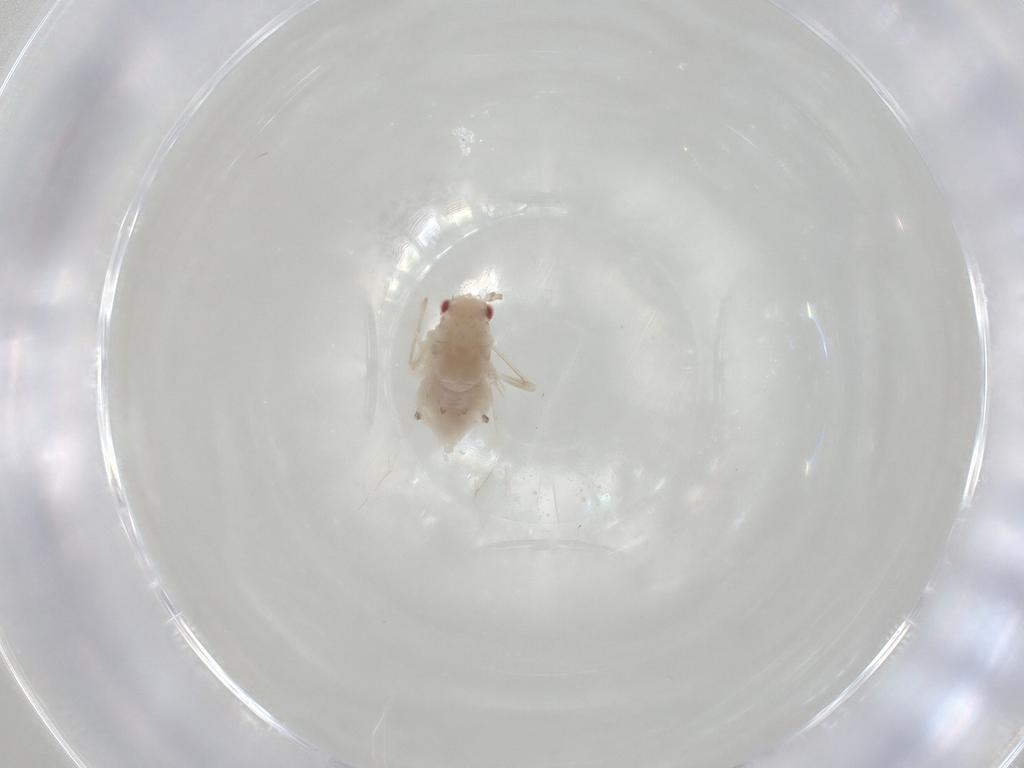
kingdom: Animalia
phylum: Arthropoda
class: Insecta
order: Hemiptera
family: Aphididae
